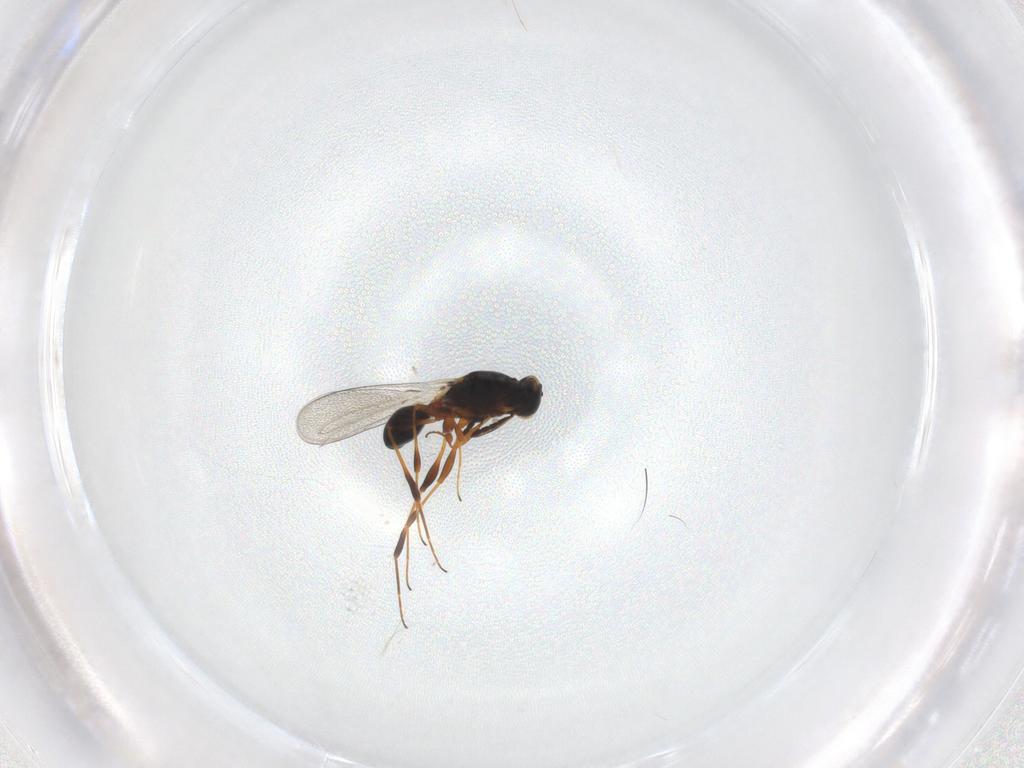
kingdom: Animalia
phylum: Arthropoda
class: Insecta
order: Hymenoptera
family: Platygastridae
